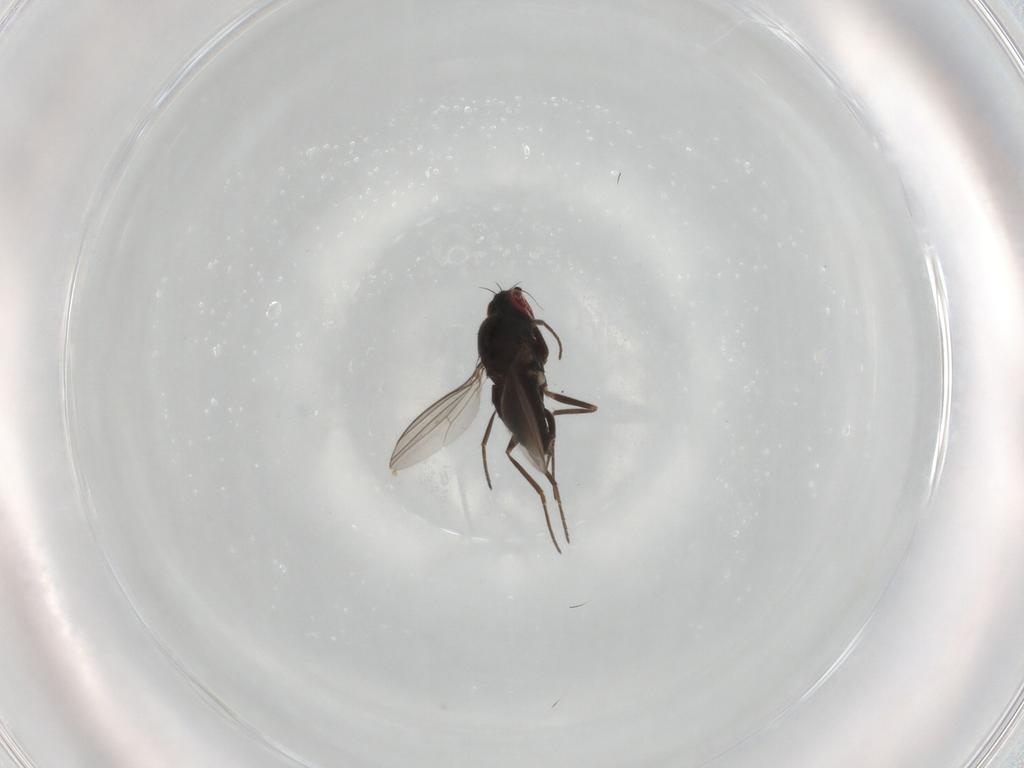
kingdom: Animalia
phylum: Arthropoda
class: Insecta
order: Diptera
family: Dolichopodidae
